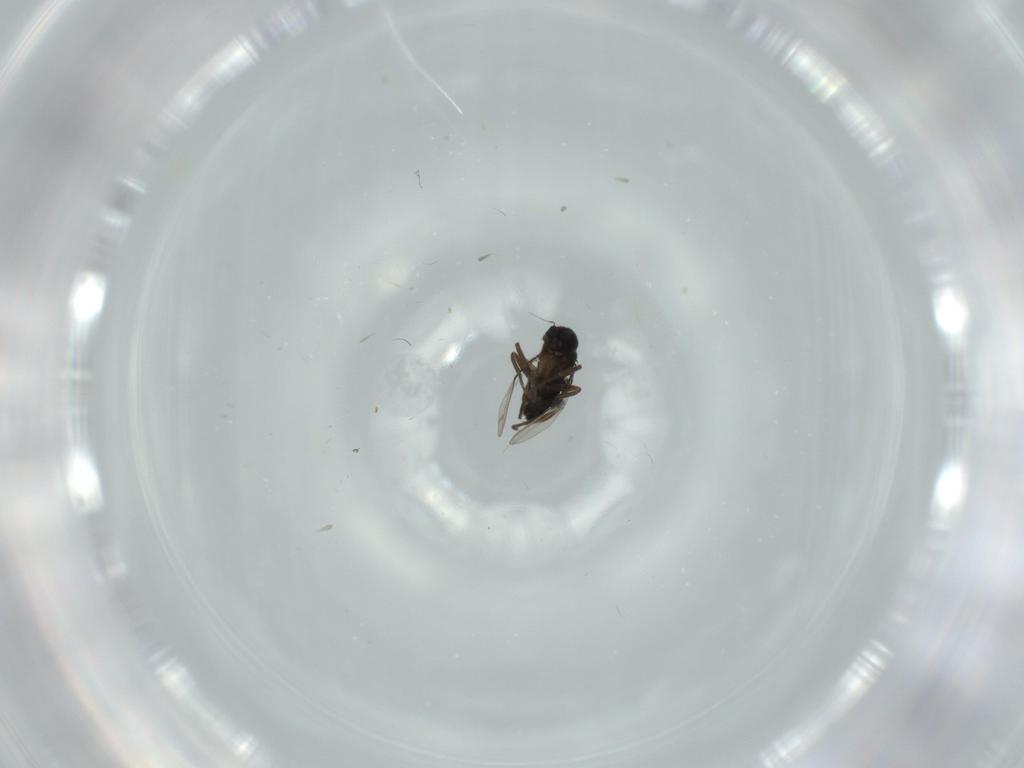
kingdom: Animalia
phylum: Arthropoda
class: Insecta
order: Diptera
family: Phoridae
